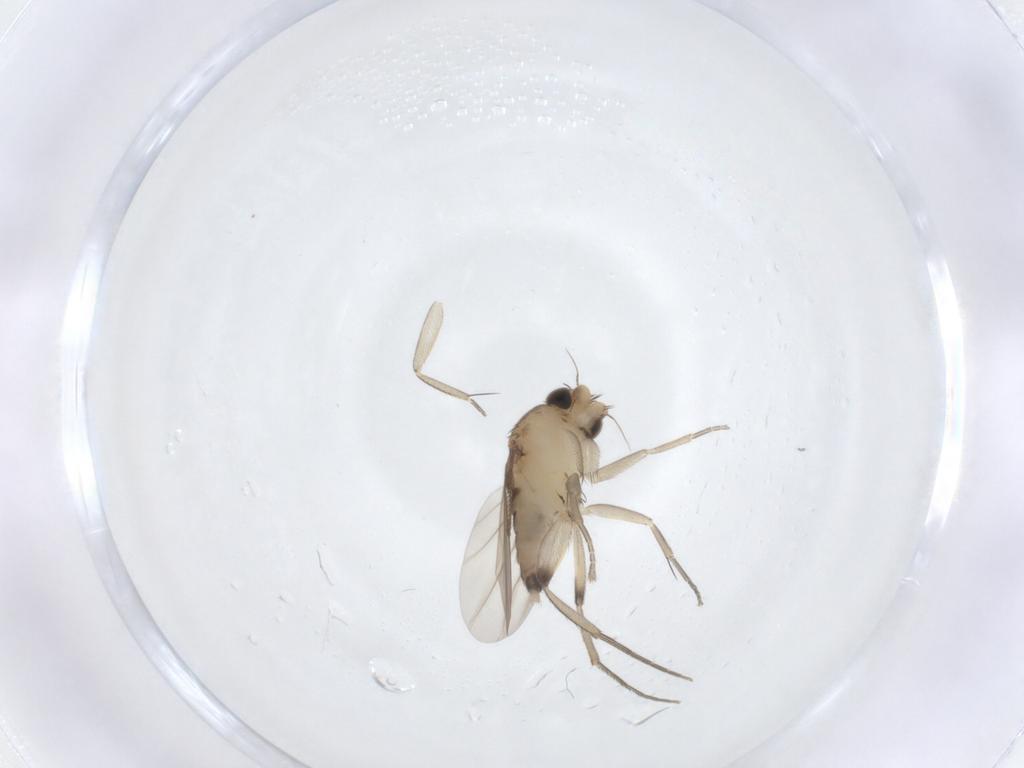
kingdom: Animalia
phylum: Arthropoda
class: Insecta
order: Diptera
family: Phoridae
